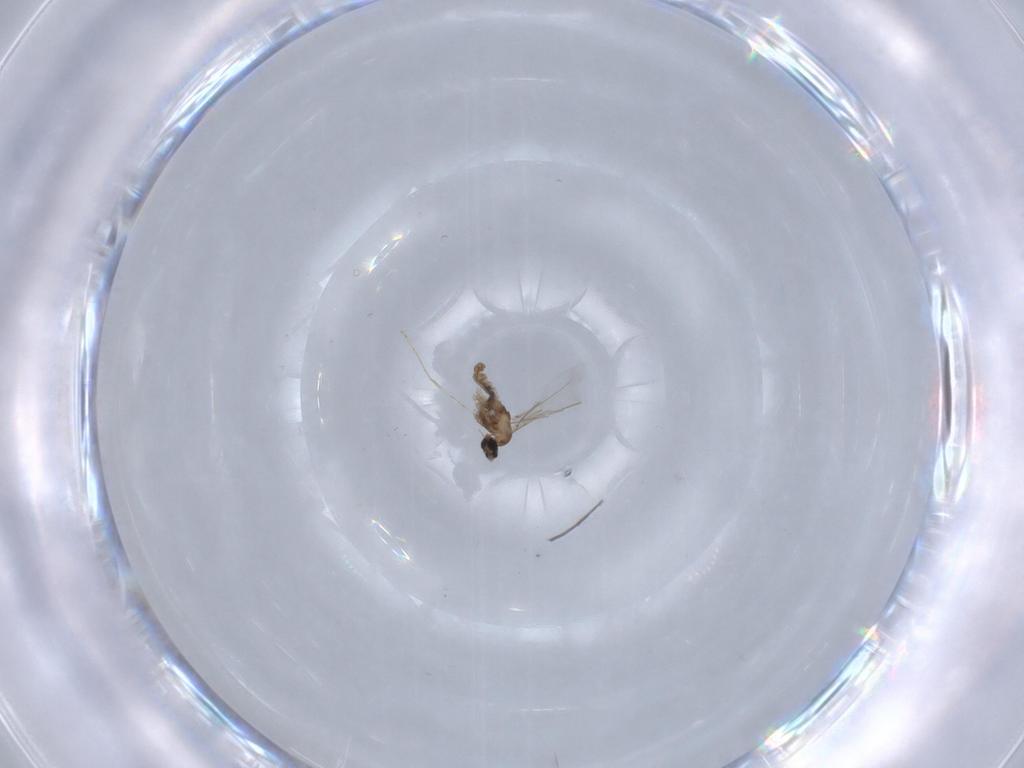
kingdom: Animalia
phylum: Arthropoda
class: Insecta
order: Diptera
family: Cecidomyiidae
